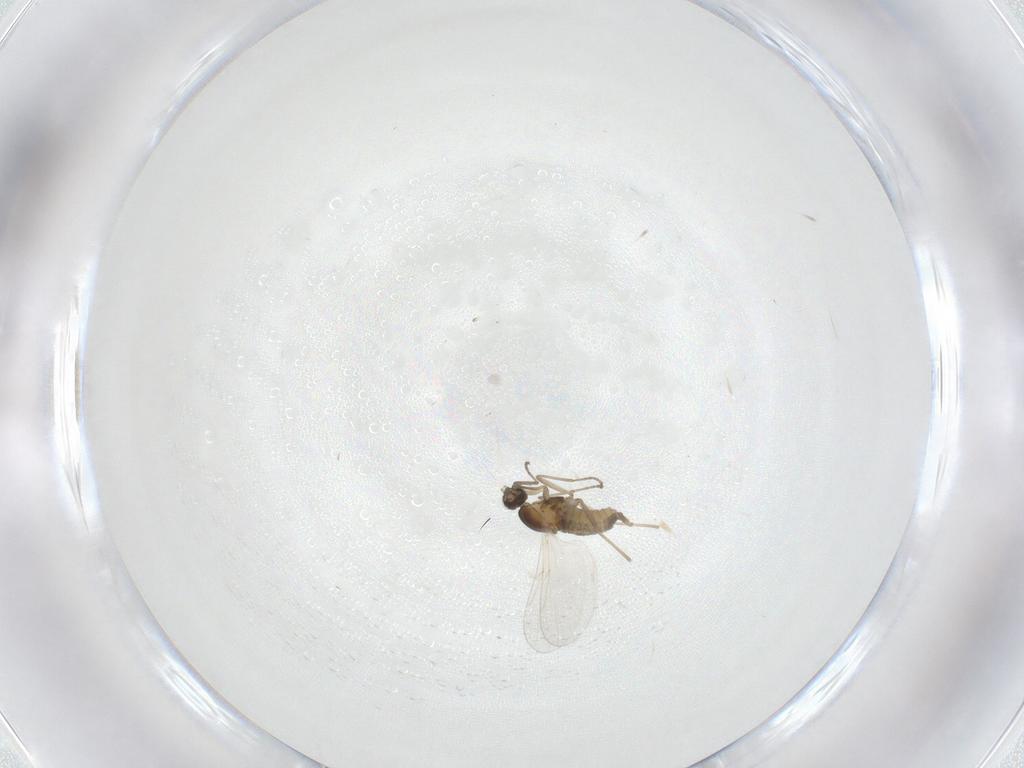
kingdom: Animalia
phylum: Arthropoda
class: Insecta
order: Diptera
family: Cecidomyiidae
